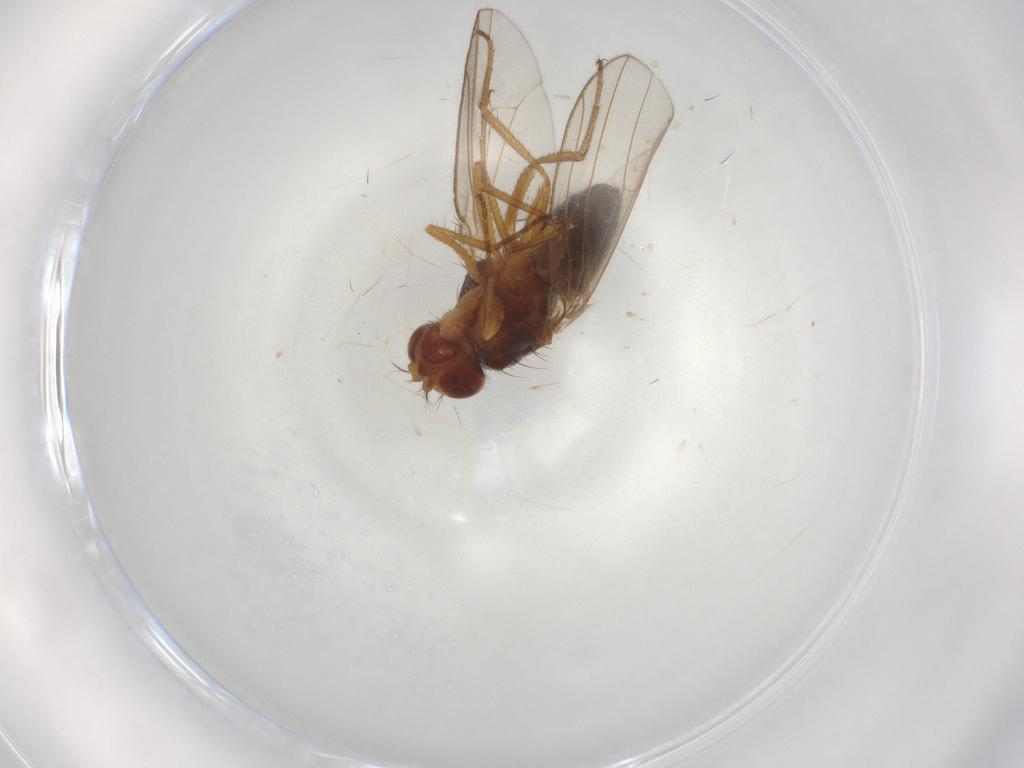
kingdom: Animalia
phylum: Arthropoda
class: Insecta
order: Diptera
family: Drosophilidae
